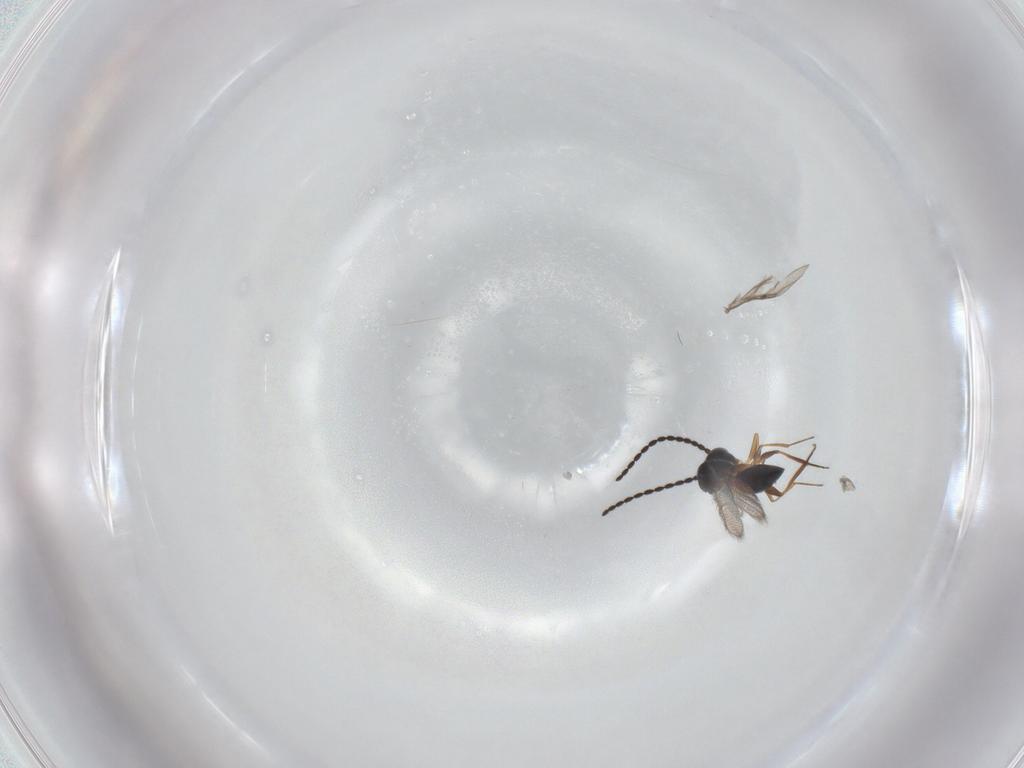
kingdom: Animalia
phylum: Arthropoda
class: Insecta
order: Hymenoptera
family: Figitidae
